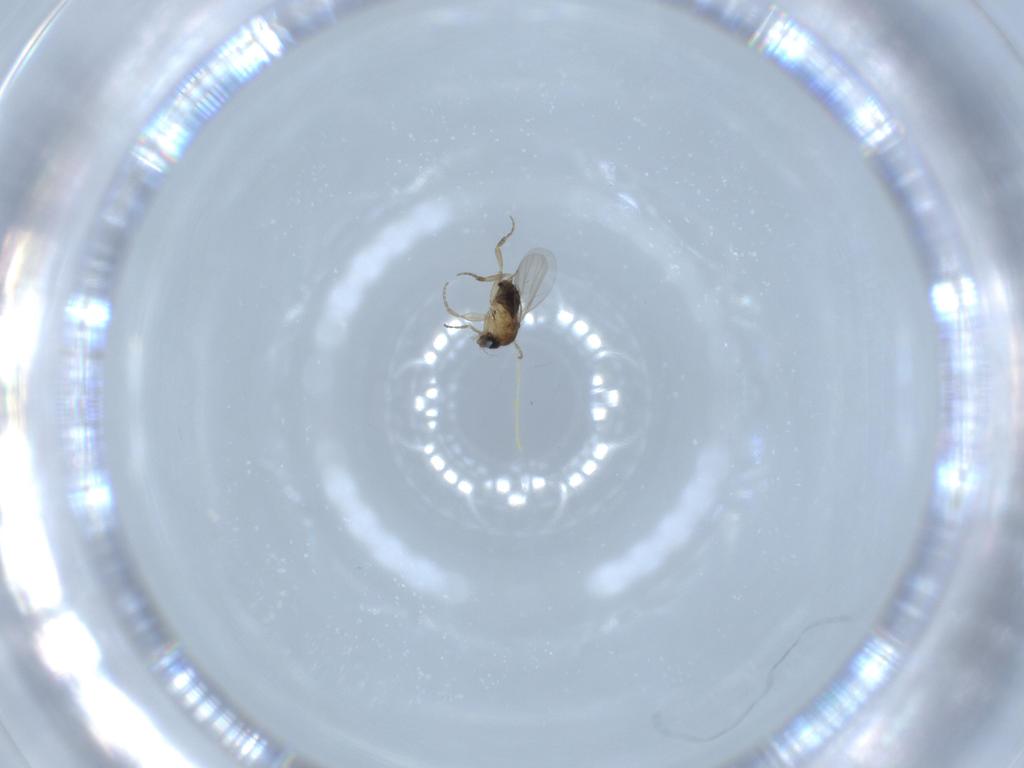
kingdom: Animalia
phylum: Arthropoda
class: Insecta
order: Diptera
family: Phoridae
